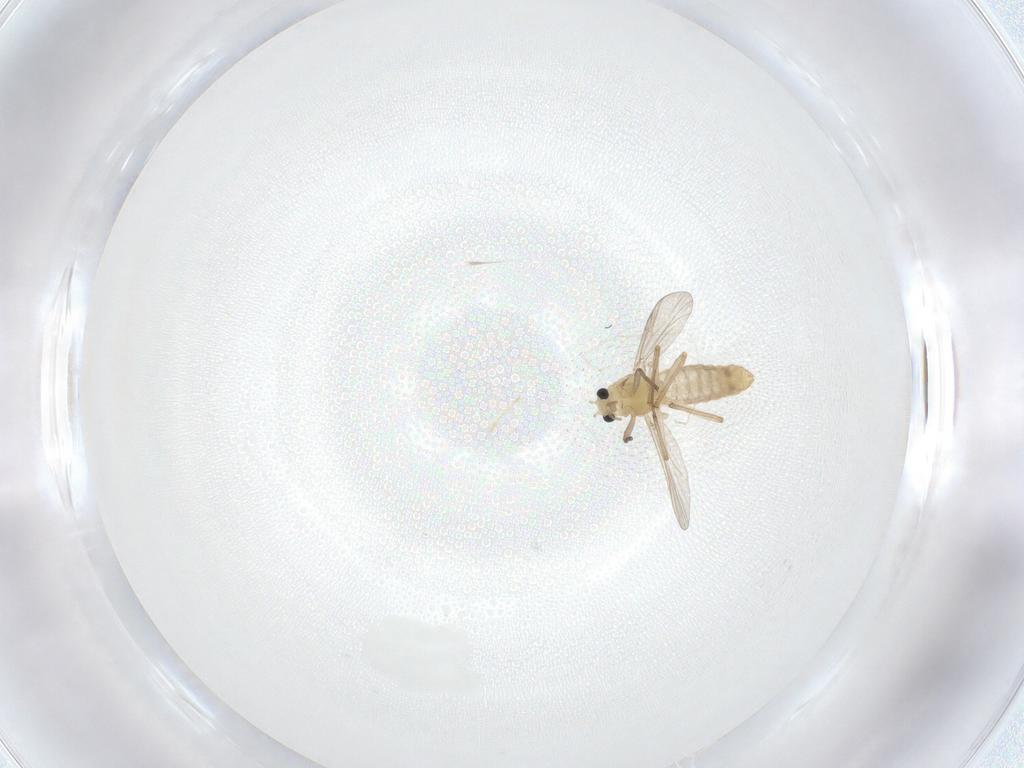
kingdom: Animalia
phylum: Arthropoda
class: Insecta
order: Diptera
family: Chironomidae
